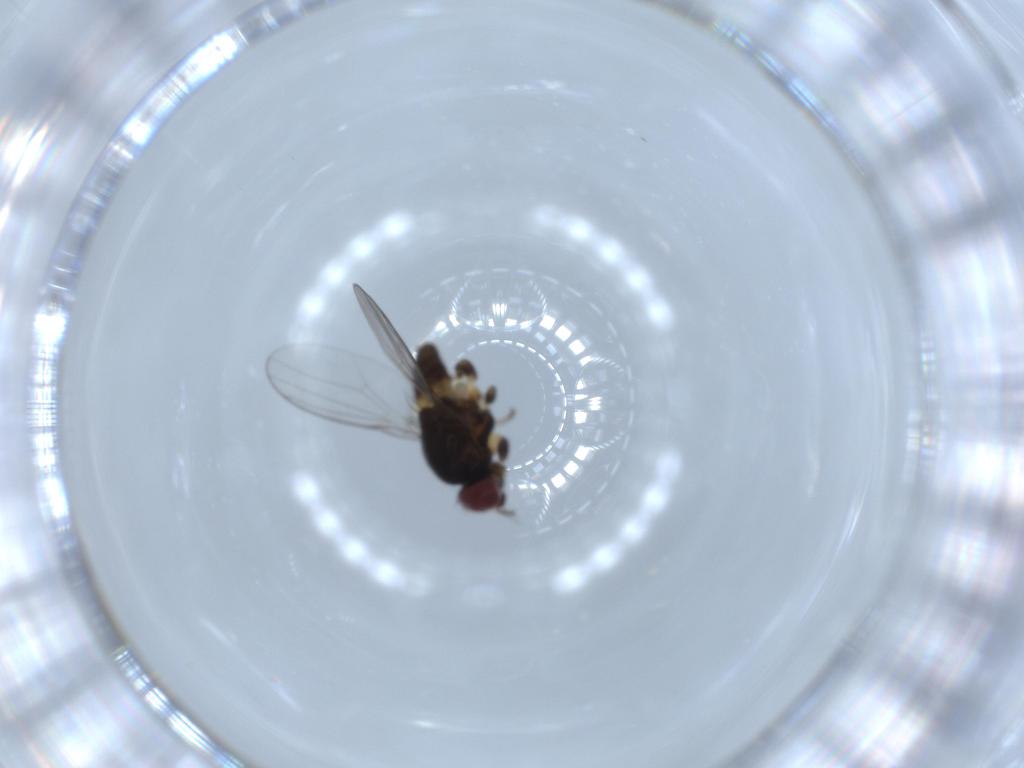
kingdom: Animalia
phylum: Arthropoda
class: Insecta
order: Diptera
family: Chloropidae
